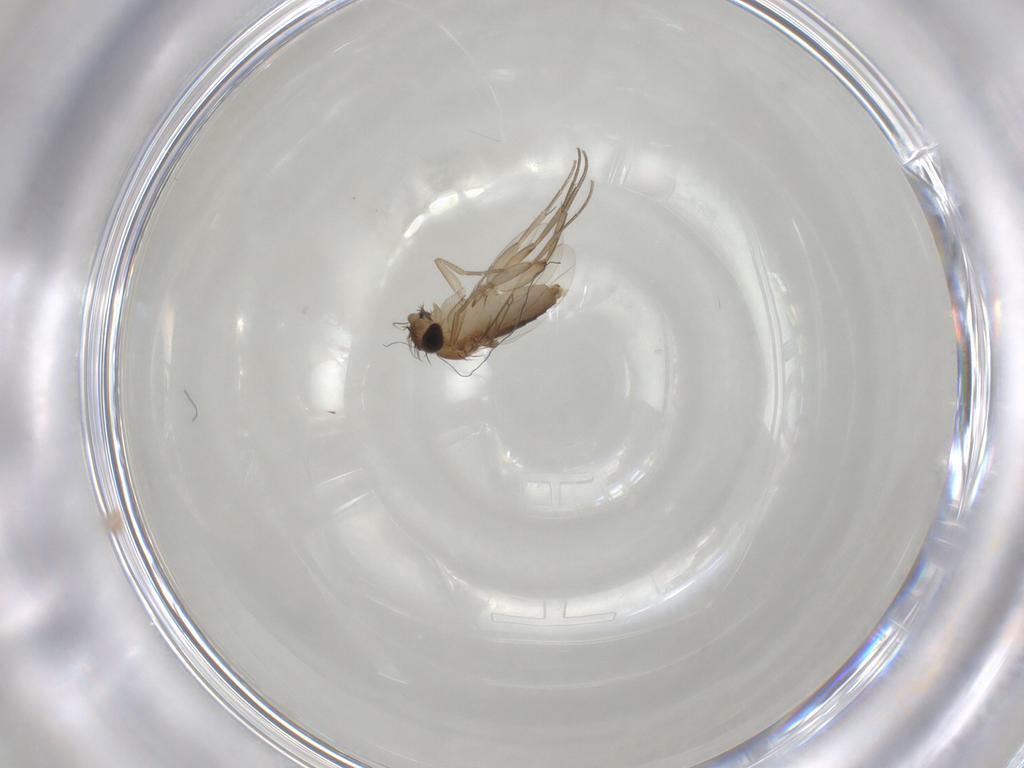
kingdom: Animalia
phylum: Arthropoda
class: Insecta
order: Diptera
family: Phoridae
